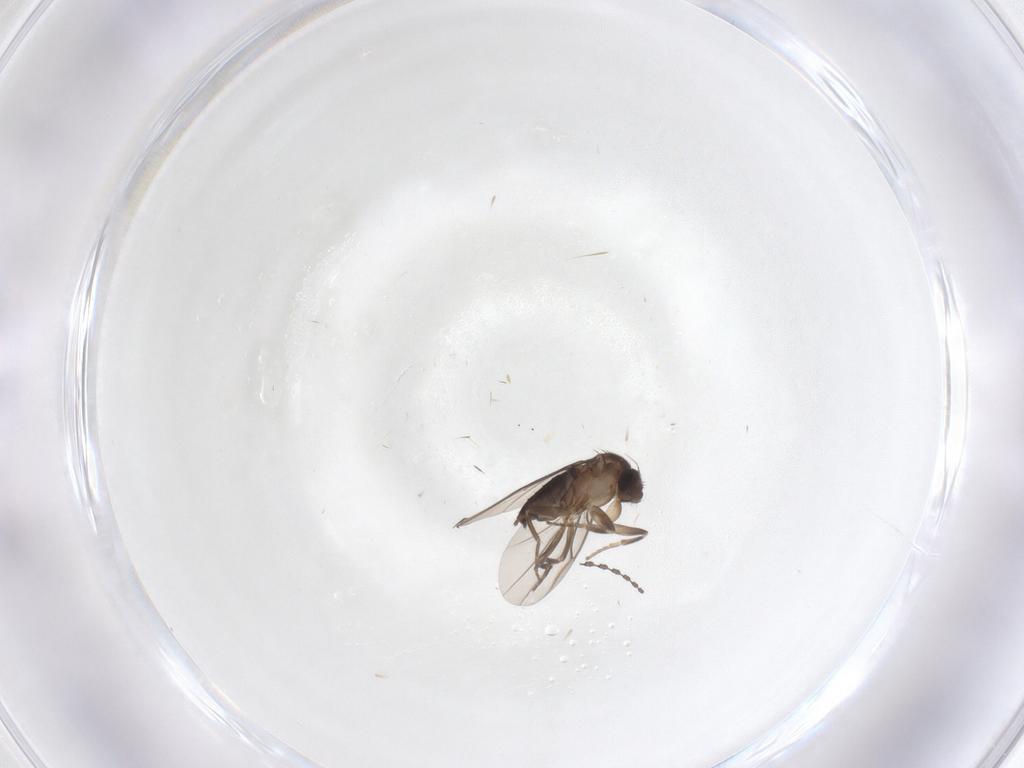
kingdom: Animalia
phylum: Arthropoda
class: Insecta
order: Diptera
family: Phoridae
